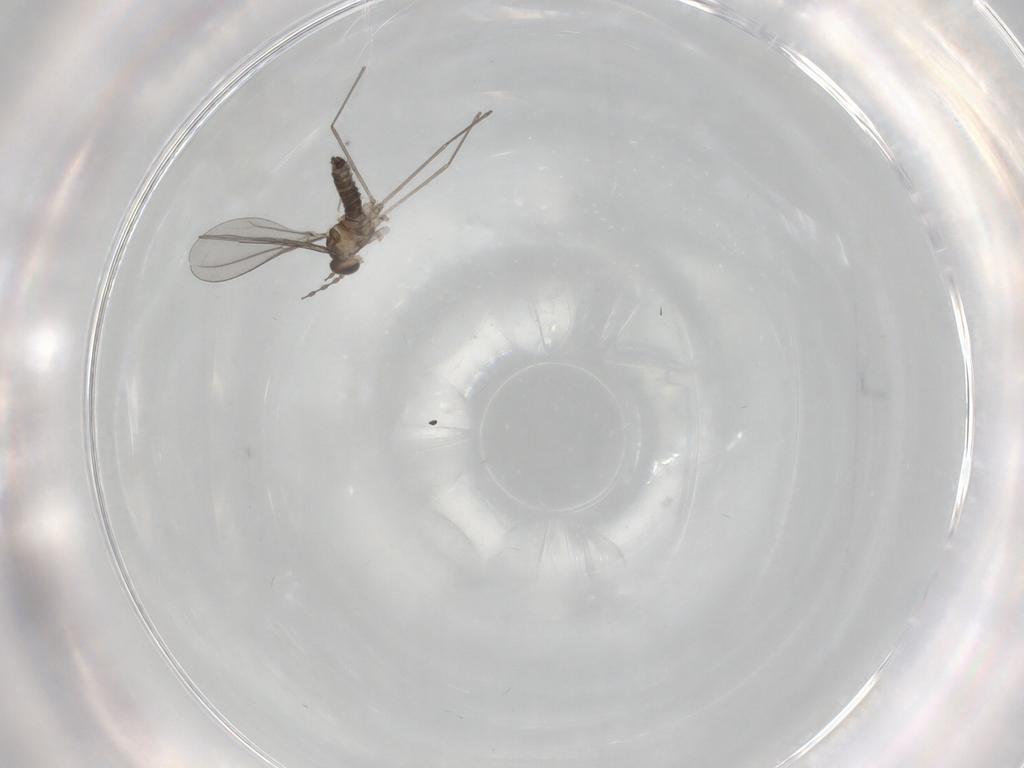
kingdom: Animalia
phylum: Arthropoda
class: Insecta
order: Diptera
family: Cecidomyiidae
